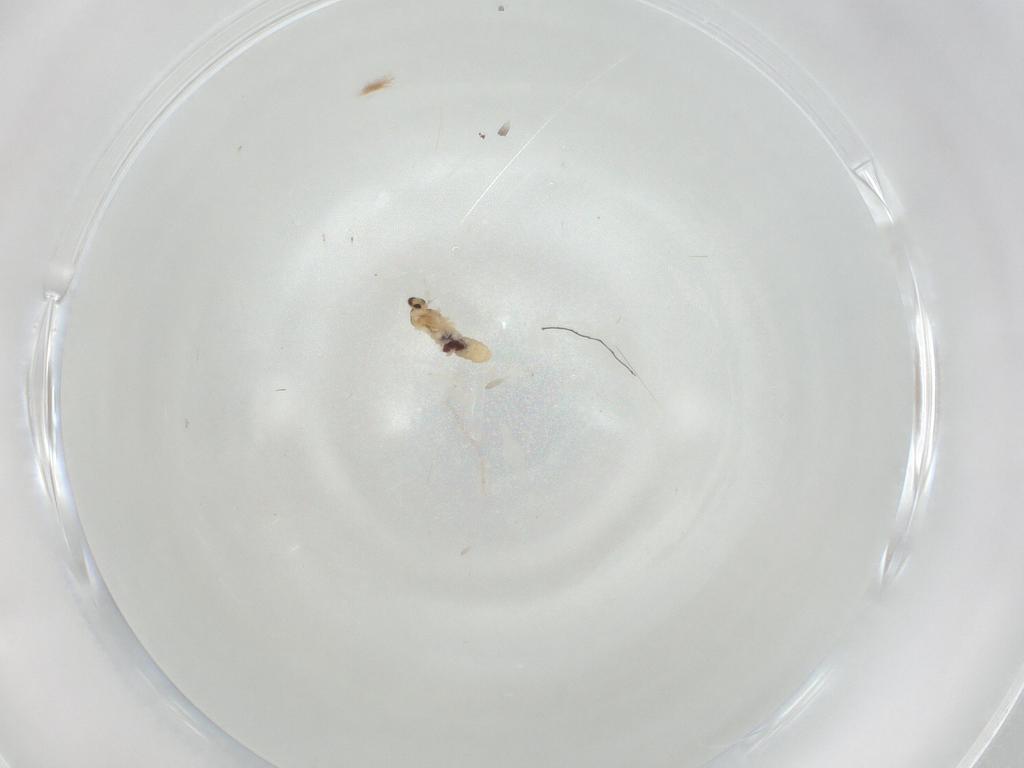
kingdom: Animalia
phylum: Arthropoda
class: Insecta
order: Diptera
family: Cecidomyiidae
